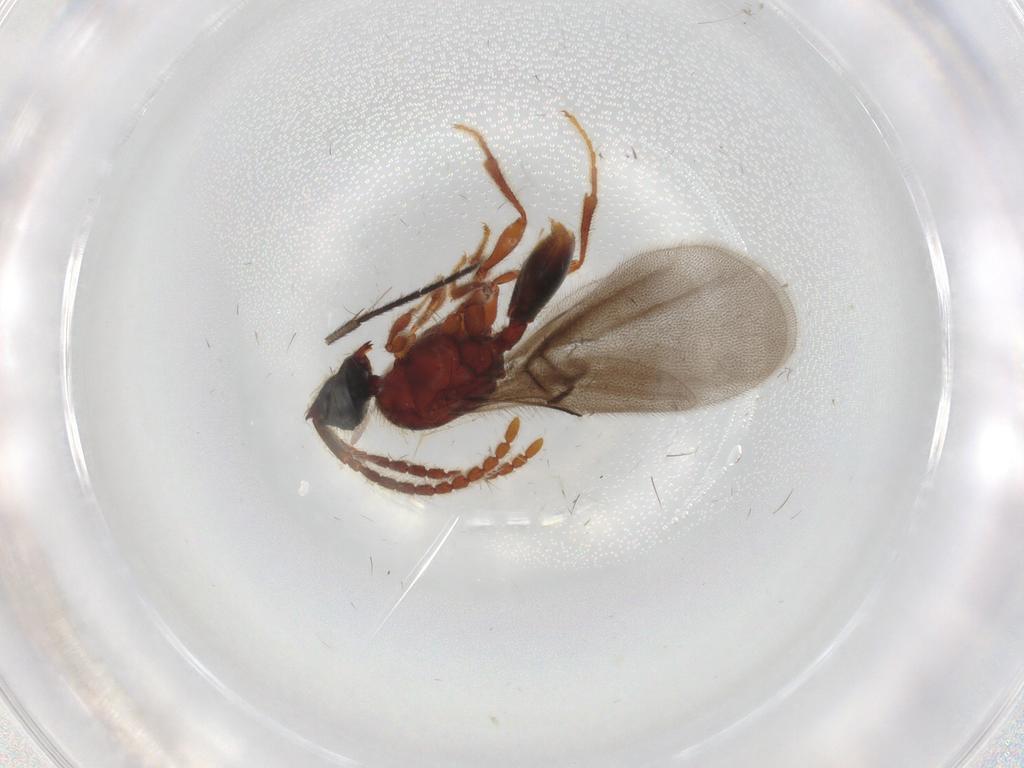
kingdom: Animalia
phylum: Arthropoda
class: Insecta
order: Hymenoptera
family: Diapriidae
